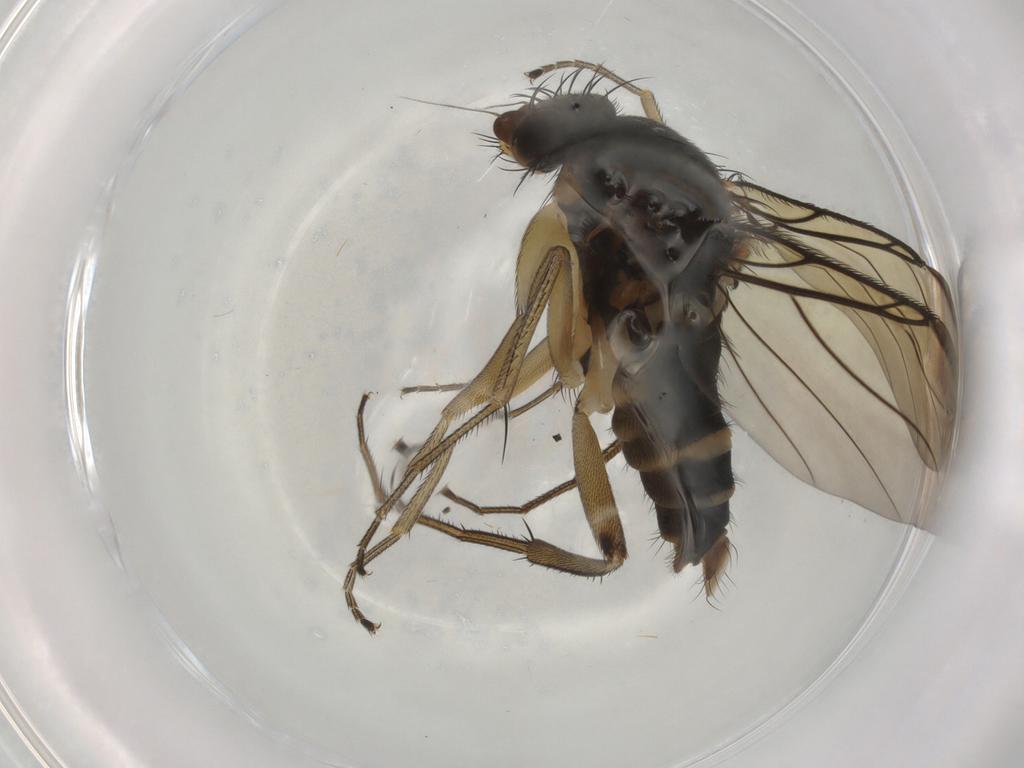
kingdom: Animalia
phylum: Arthropoda
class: Insecta
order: Diptera
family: Phoridae
